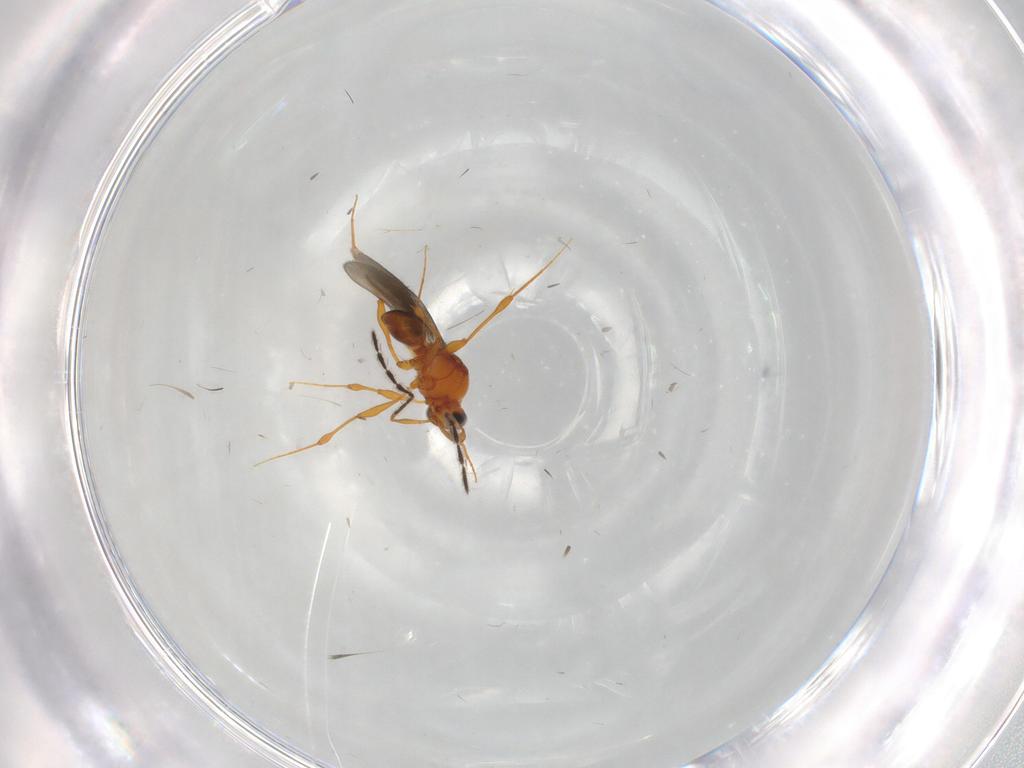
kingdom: Animalia
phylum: Arthropoda
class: Insecta
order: Hymenoptera
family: Platygastridae
